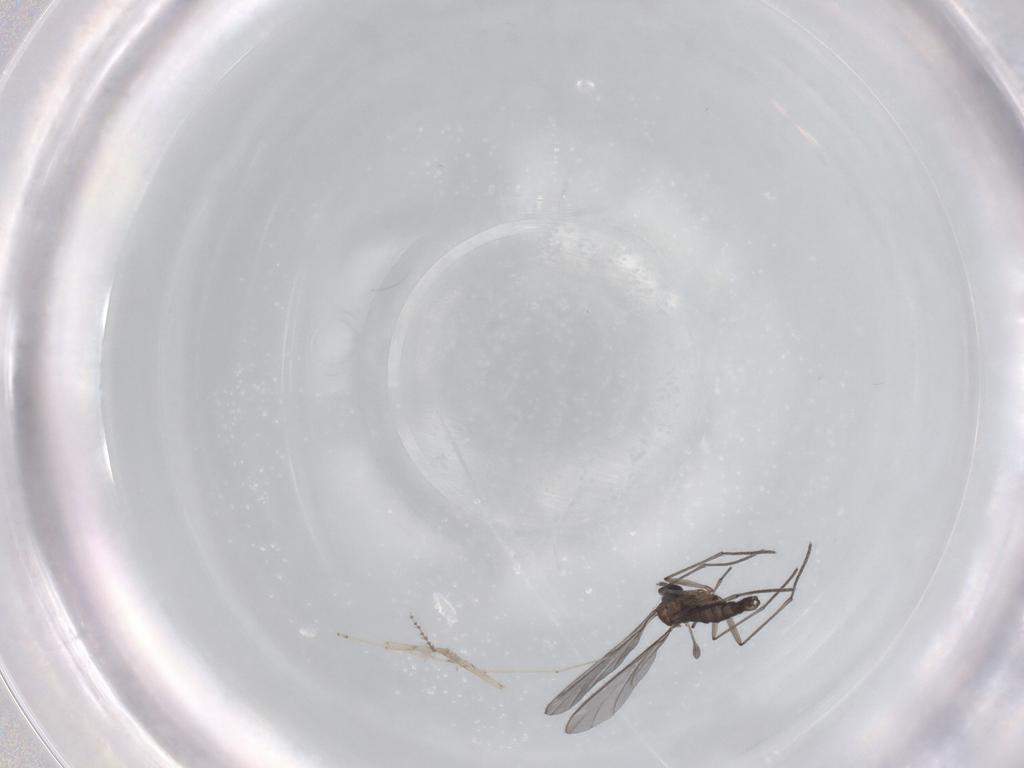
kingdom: Animalia
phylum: Arthropoda
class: Insecta
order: Diptera
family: Cecidomyiidae
